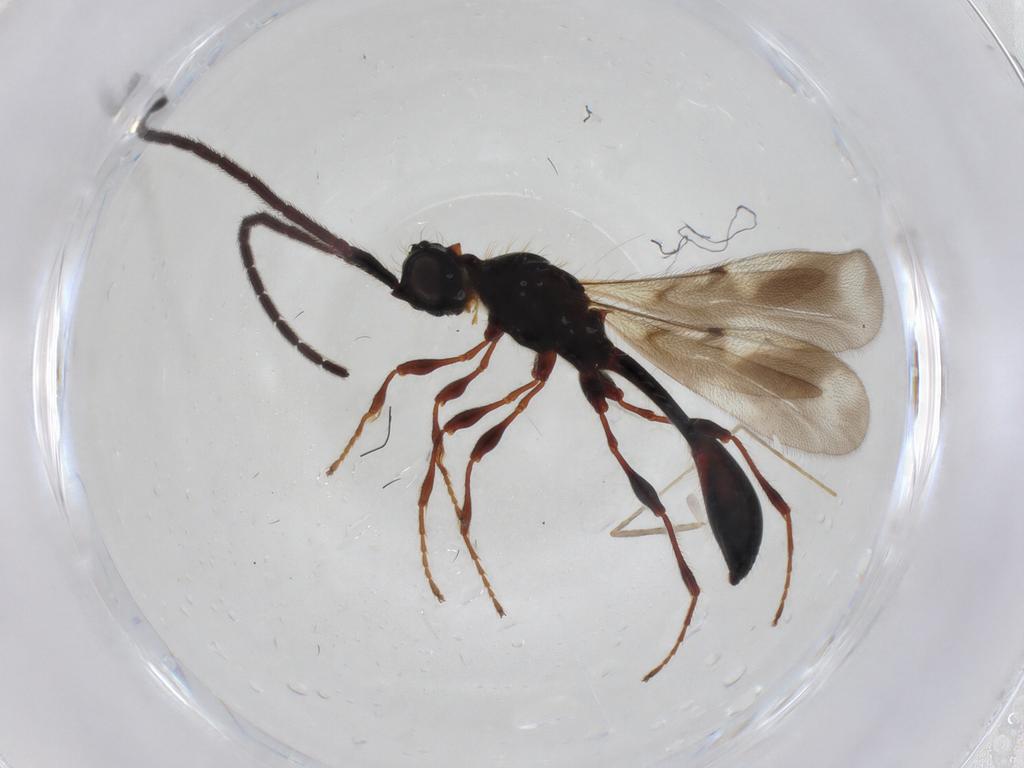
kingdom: Animalia
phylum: Arthropoda
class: Insecta
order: Hymenoptera
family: Diapriidae
